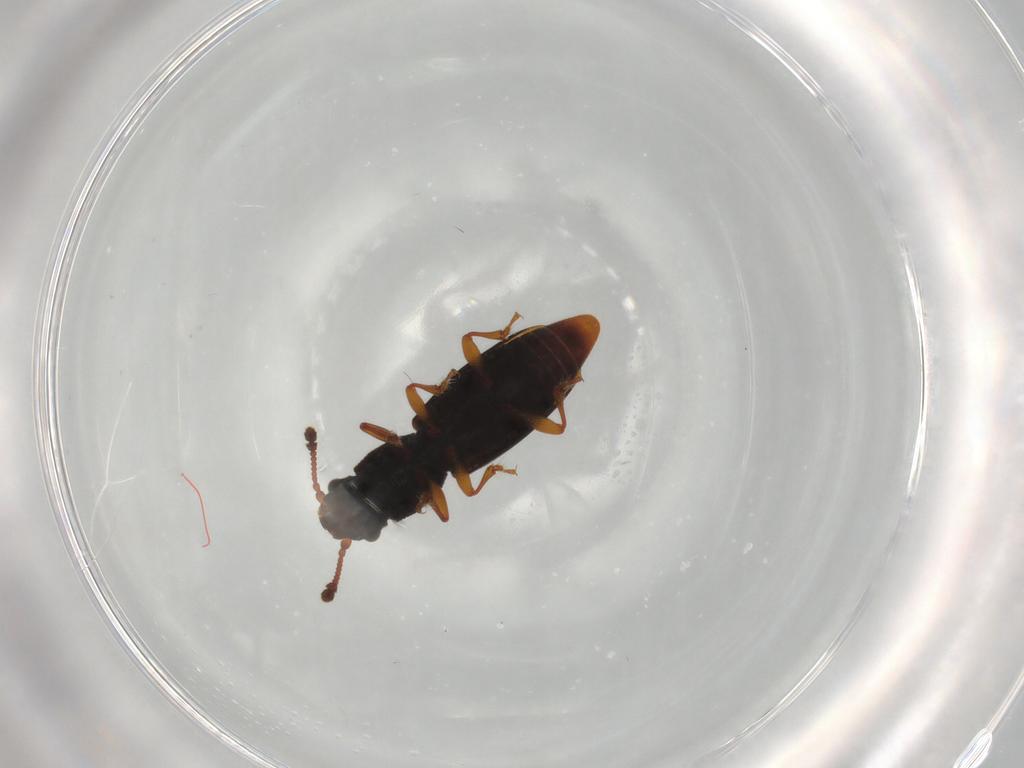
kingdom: Animalia
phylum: Arthropoda
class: Insecta
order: Coleoptera
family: Monotomidae
